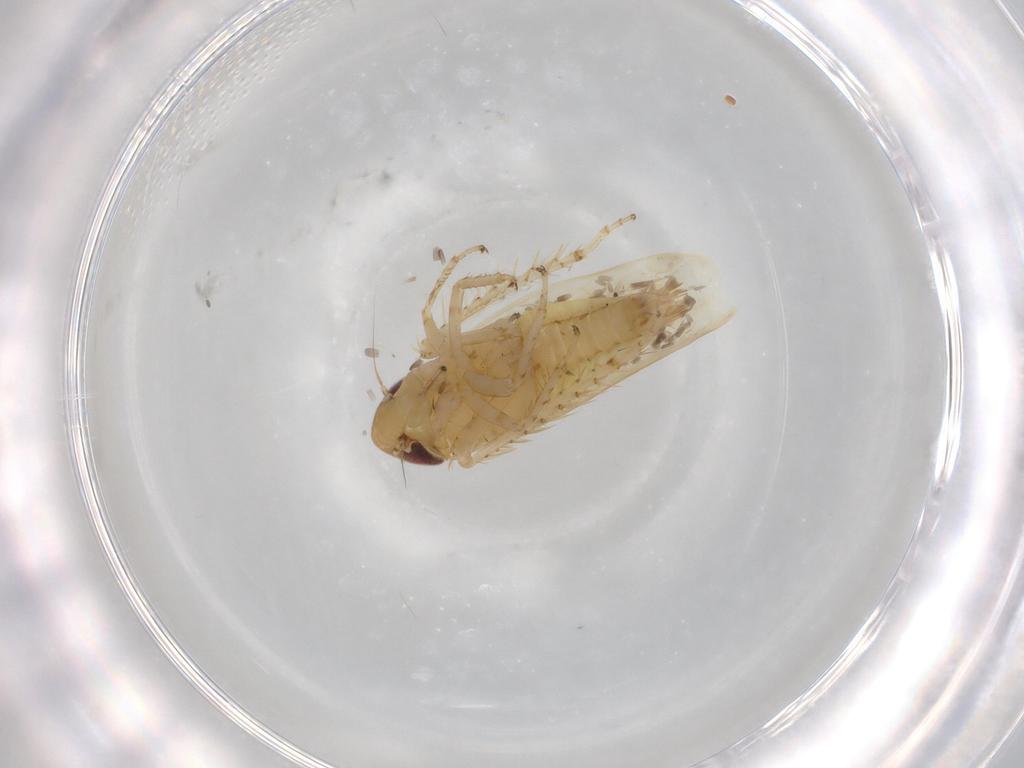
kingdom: Animalia
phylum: Arthropoda
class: Insecta
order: Hemiptera
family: Cicadellidae
